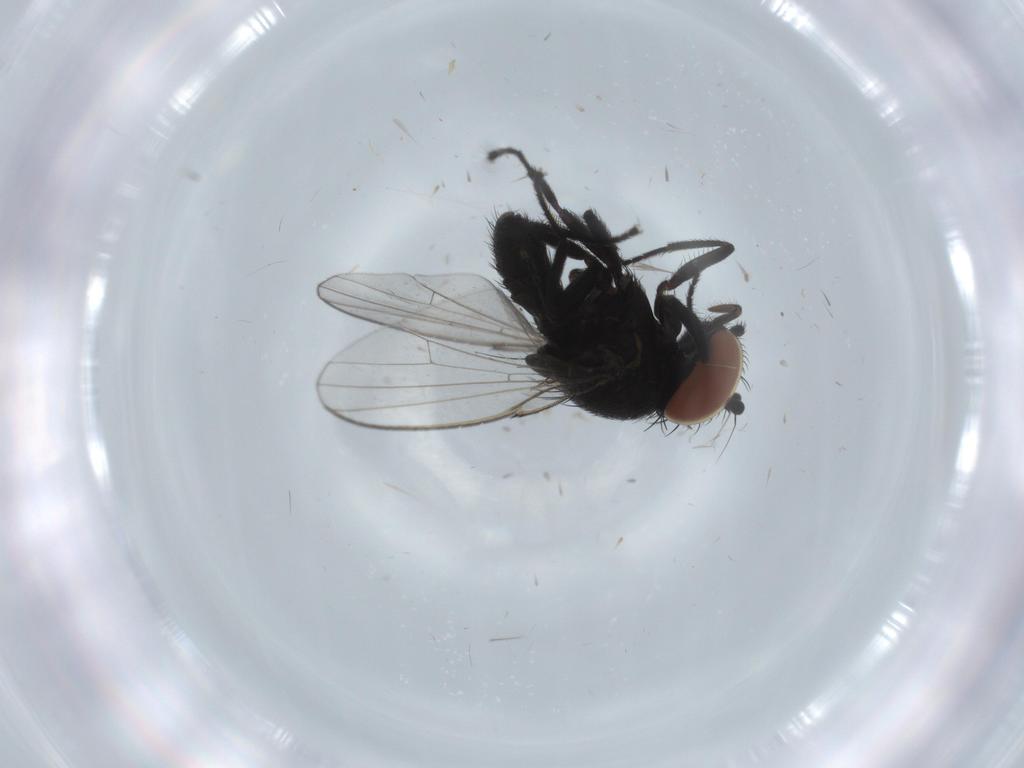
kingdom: Animalia
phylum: Arthropoda
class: Insecta
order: Diptera
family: Milichiidae
